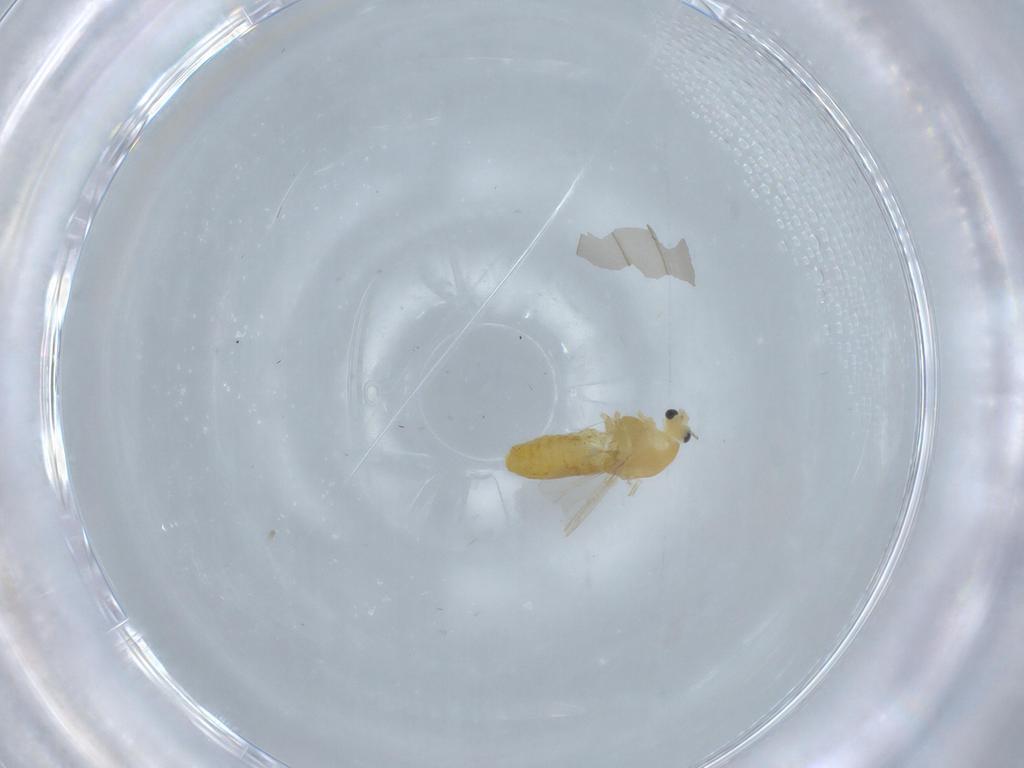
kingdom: Animalia
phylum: Arthropoda
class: Insecta
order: Diptera
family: Chironomidae
